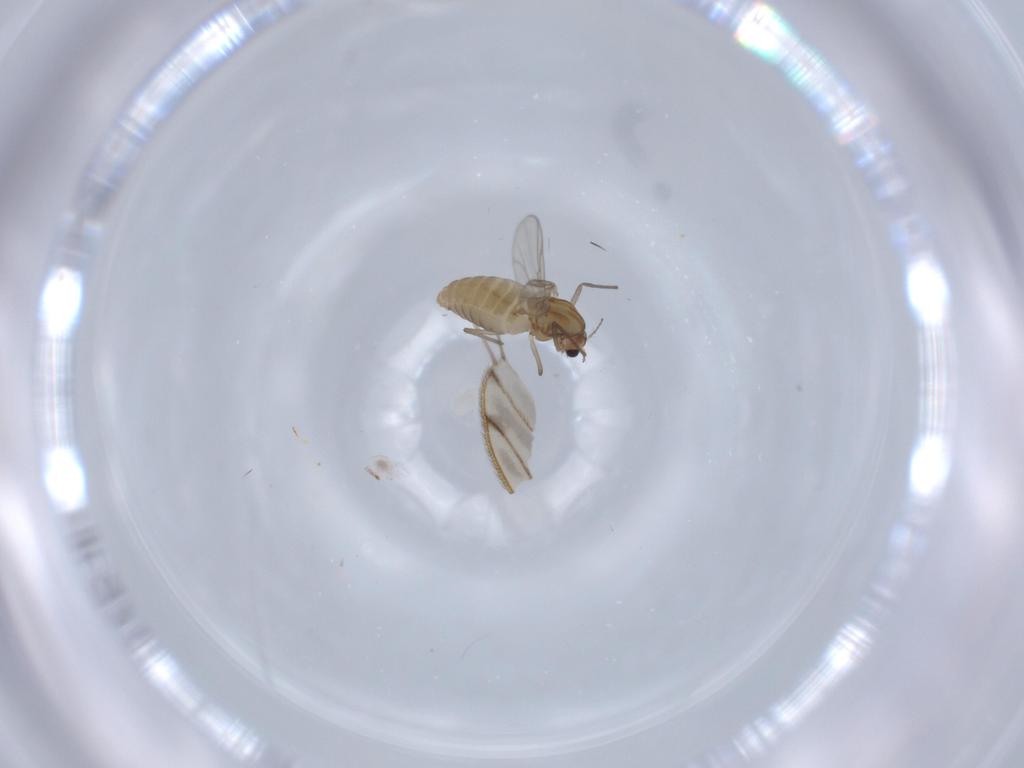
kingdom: Animalia
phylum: Arthropoda
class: Insecta
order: Diptera
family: Chironomidae
